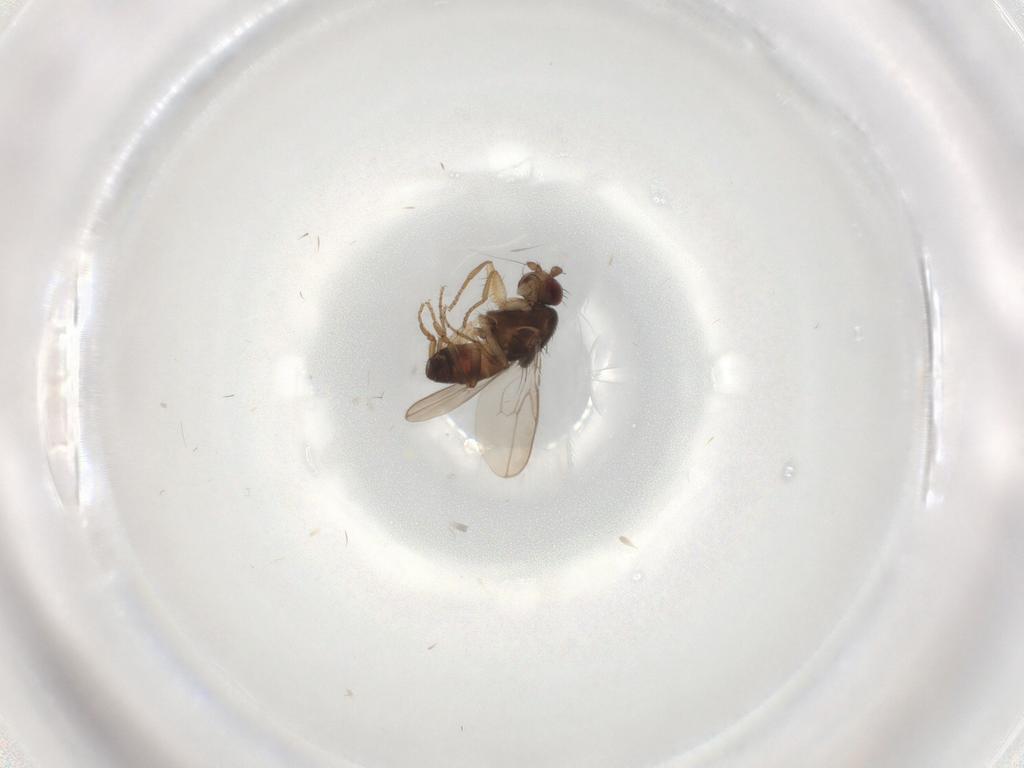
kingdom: Animalia
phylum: Arthropoda
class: Insecta
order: Diptera
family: Sphaeroceridae
